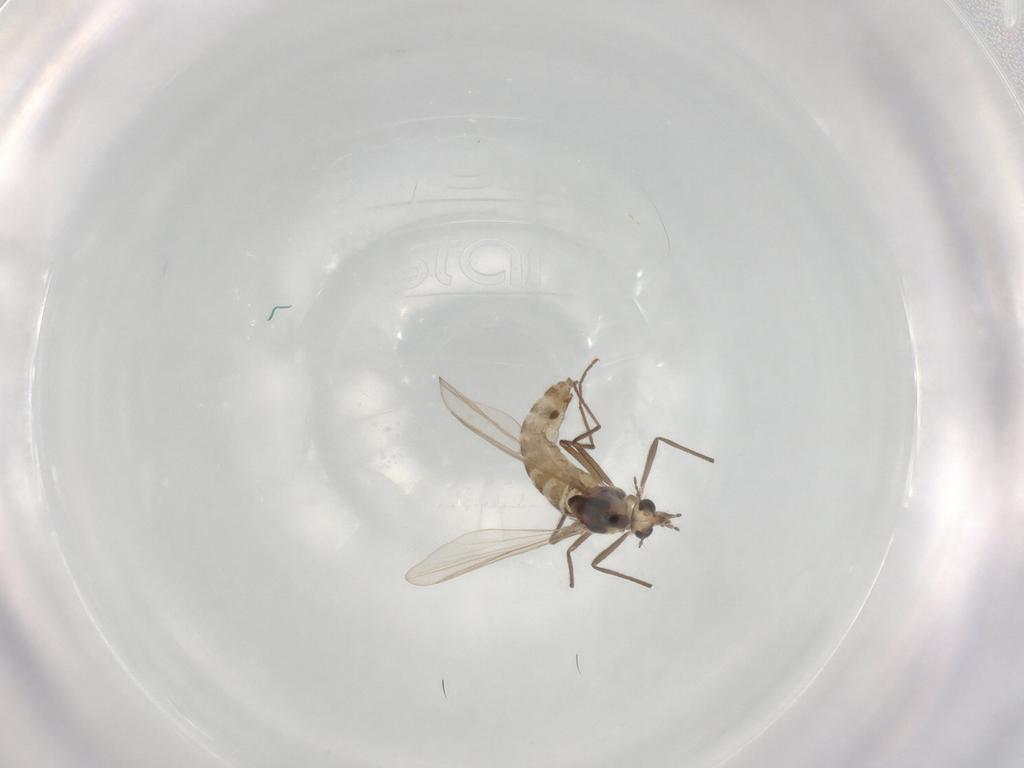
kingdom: Animalia
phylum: Arthropoda
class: Insecta
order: Diptera
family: Chironomidae
